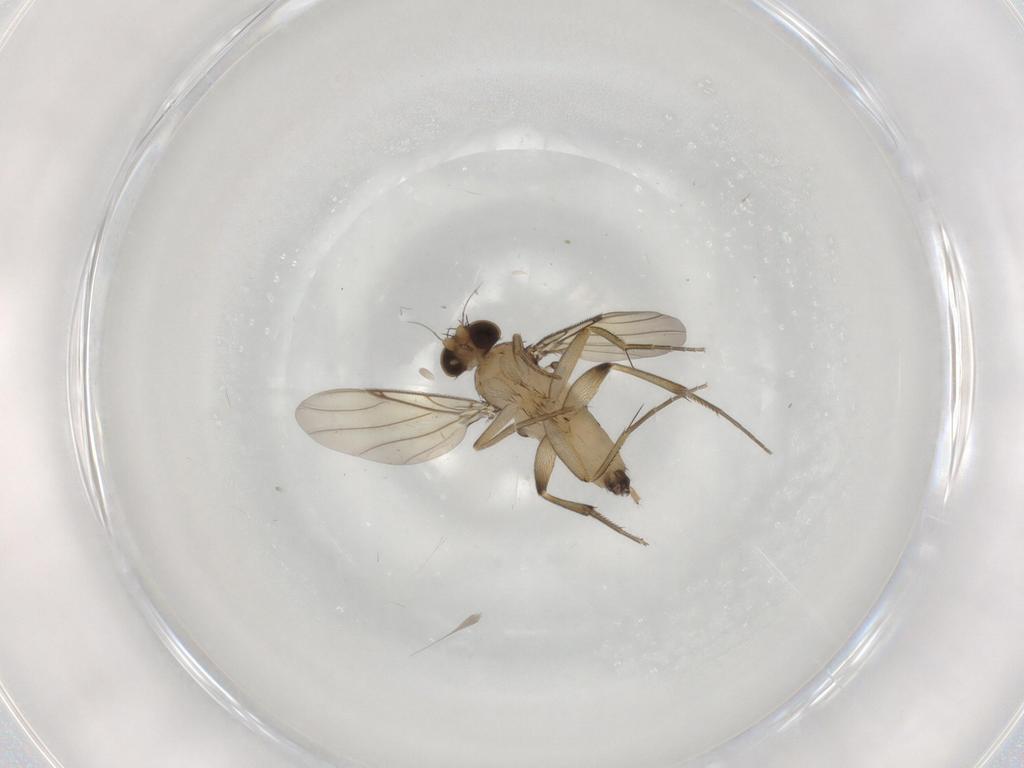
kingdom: Animalia
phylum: Arthropoda
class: Insecta
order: Diptera
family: Phoridae
